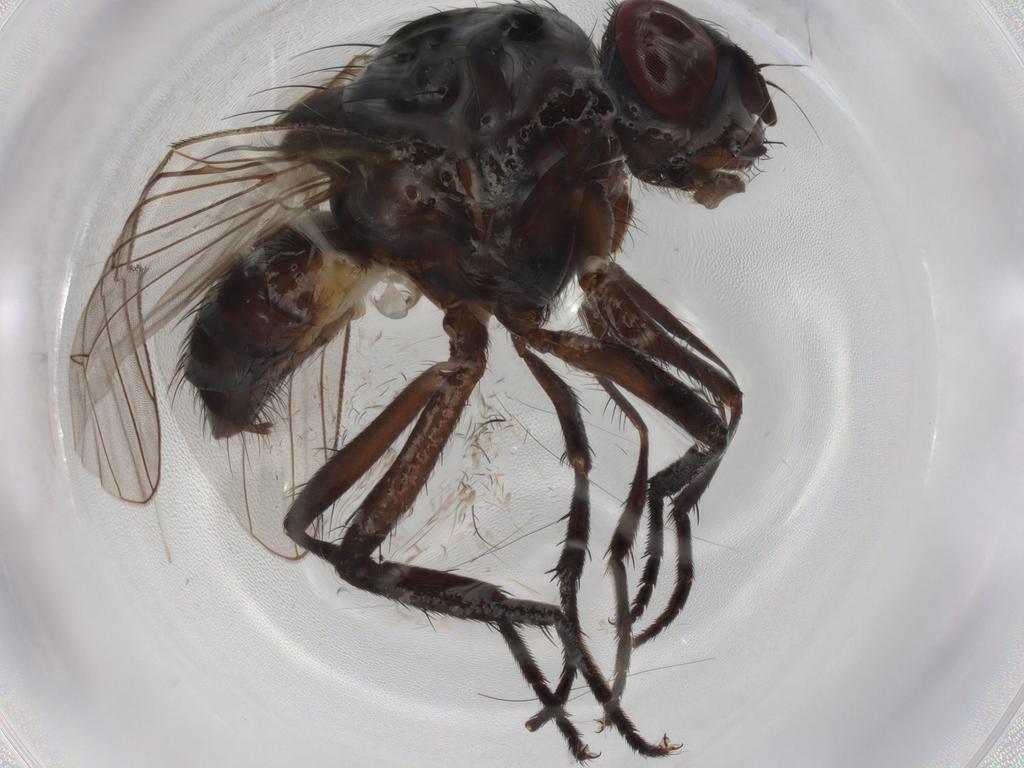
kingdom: Animalia
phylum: Arthropoda
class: Insecta
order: Diptera
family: Anthomyiidae
